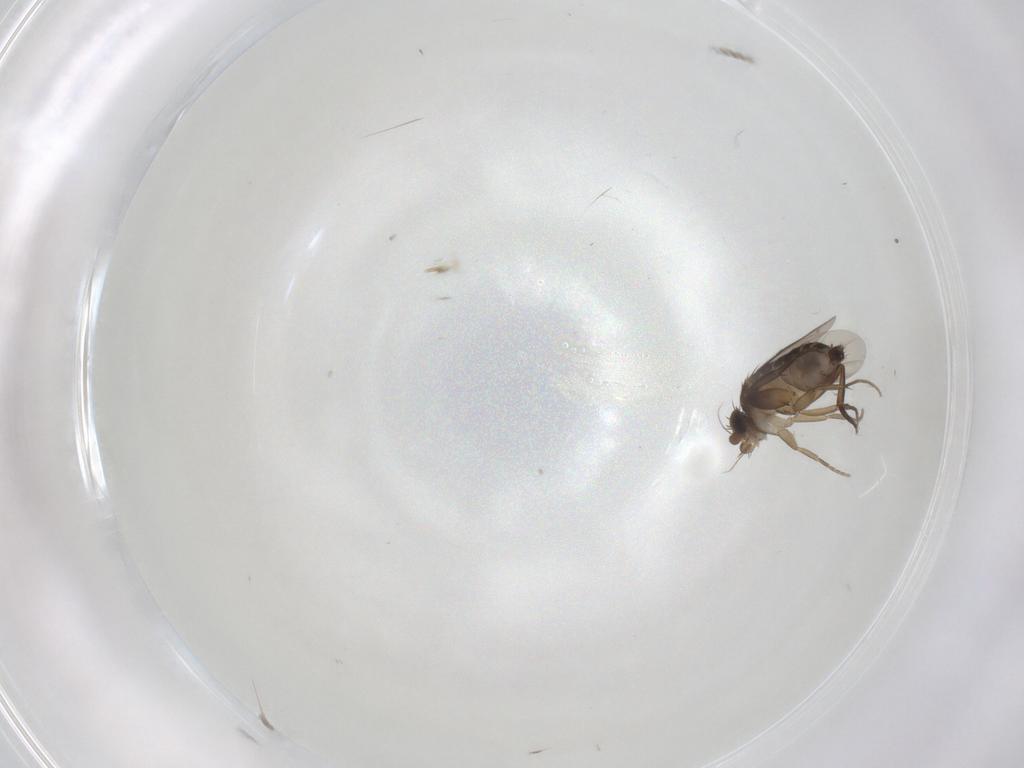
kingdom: Animalia
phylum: Arthropoda
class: Insecta
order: Diptera
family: Phoridae
